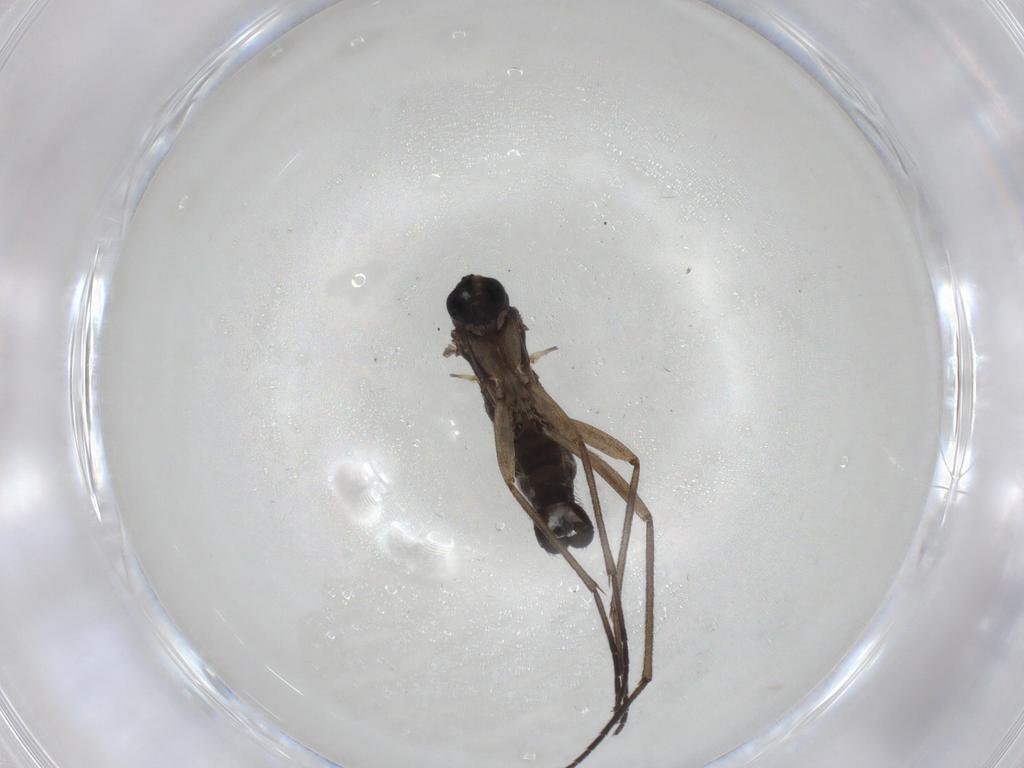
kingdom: Animalia
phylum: Arthropoda
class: Insecta
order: Diptera
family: Sciaridae
